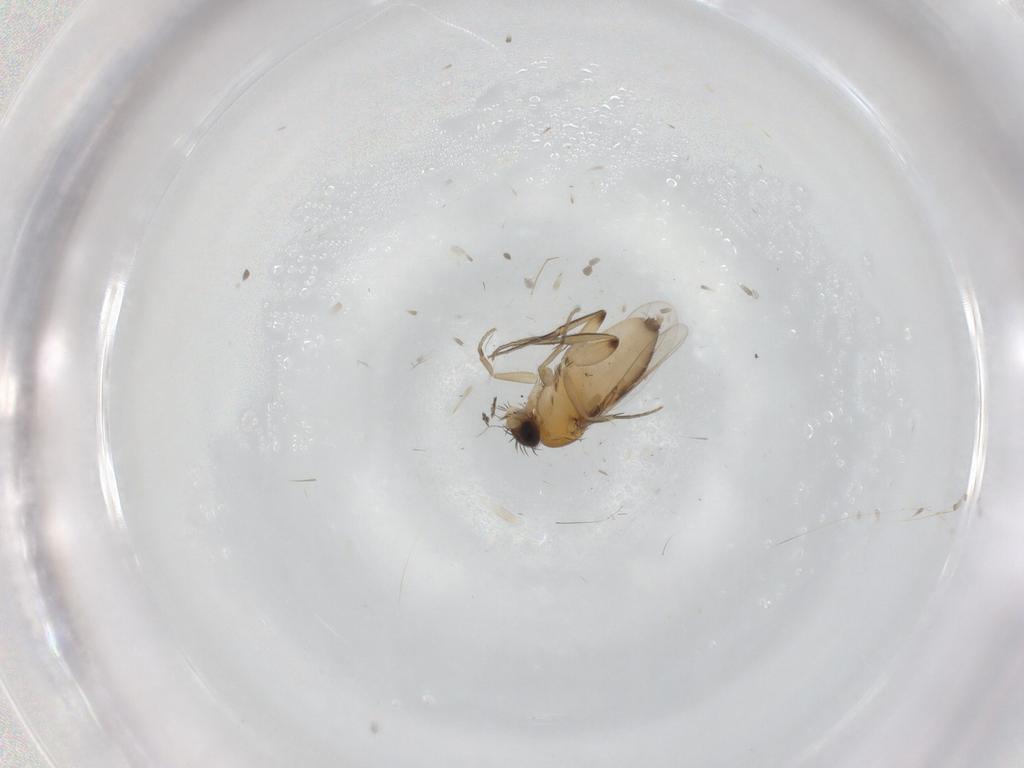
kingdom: Animalia
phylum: Arthropoda
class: Insecta
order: Diptera
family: Phoridae
